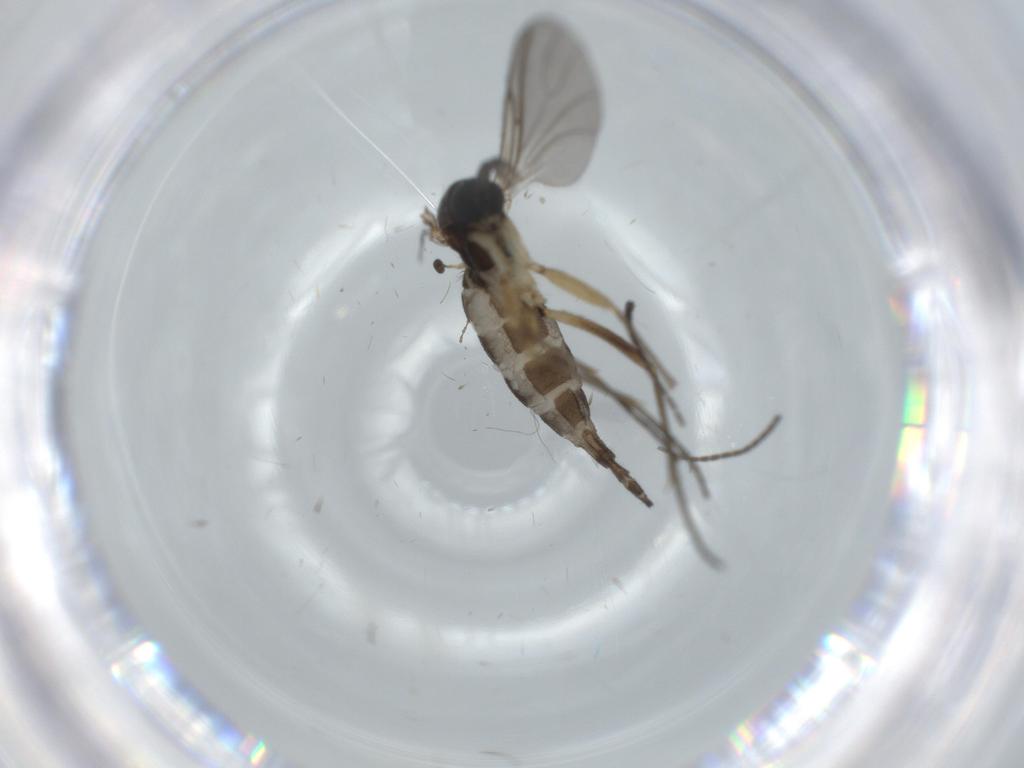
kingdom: Animalia
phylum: Arthropoda
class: Insecta
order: Diptera
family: Sciaridae
